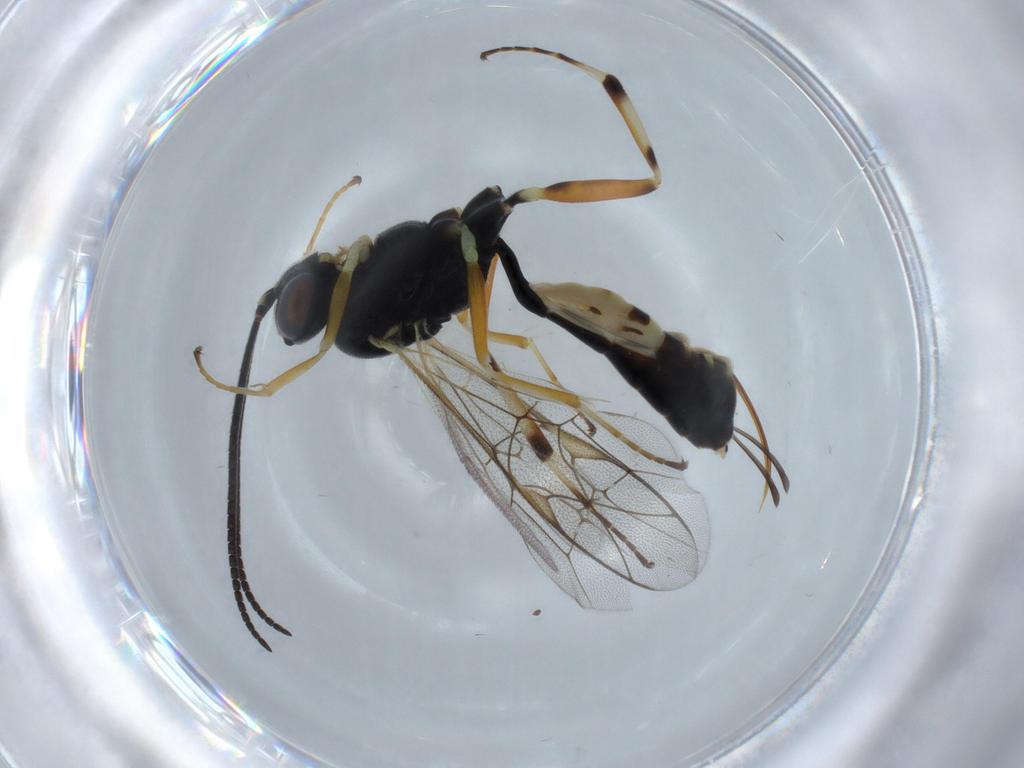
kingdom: Animalia
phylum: Arthropoda
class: Insecta
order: Hymenoptera
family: Ichneumonidae
